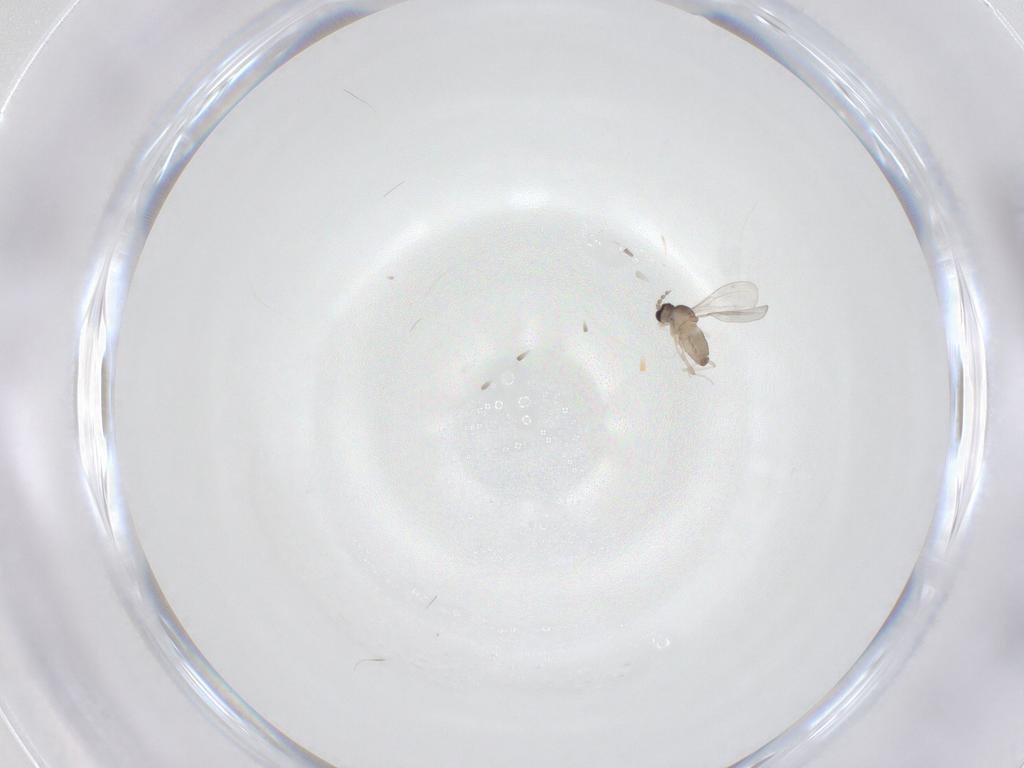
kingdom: Animalia
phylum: Arthropoda
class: Insecta
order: Diptera
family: Cecidomyiidae
